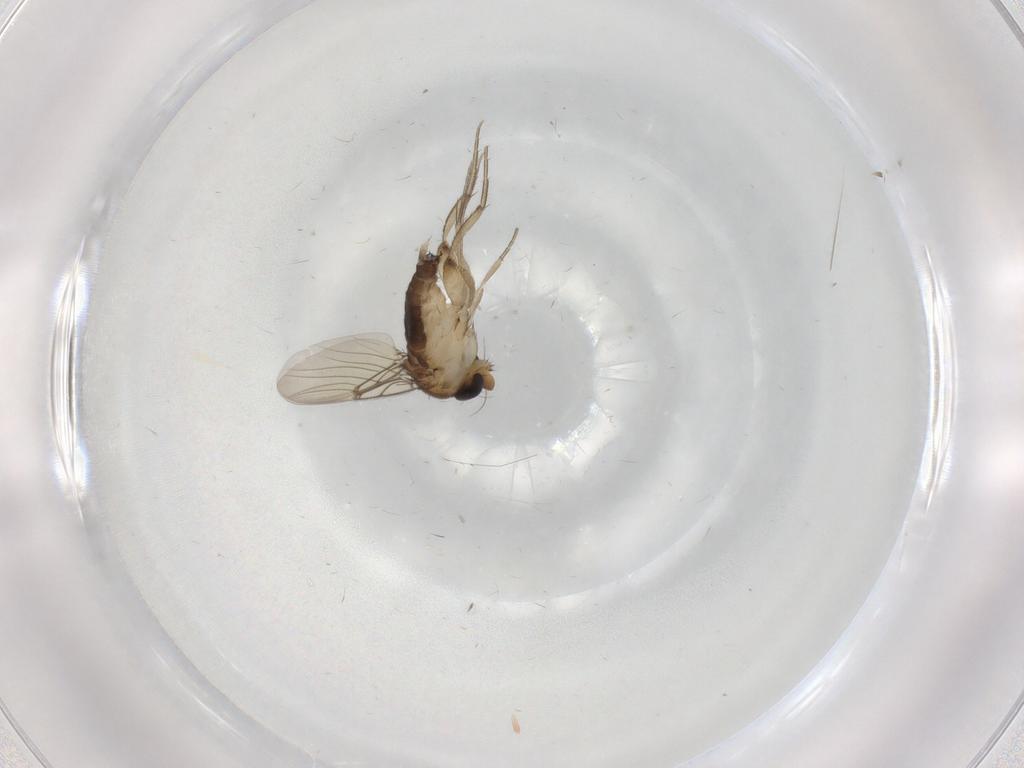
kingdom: Animalia
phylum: Arthropoda
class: Insecta
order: Diptera
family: Phoridae
